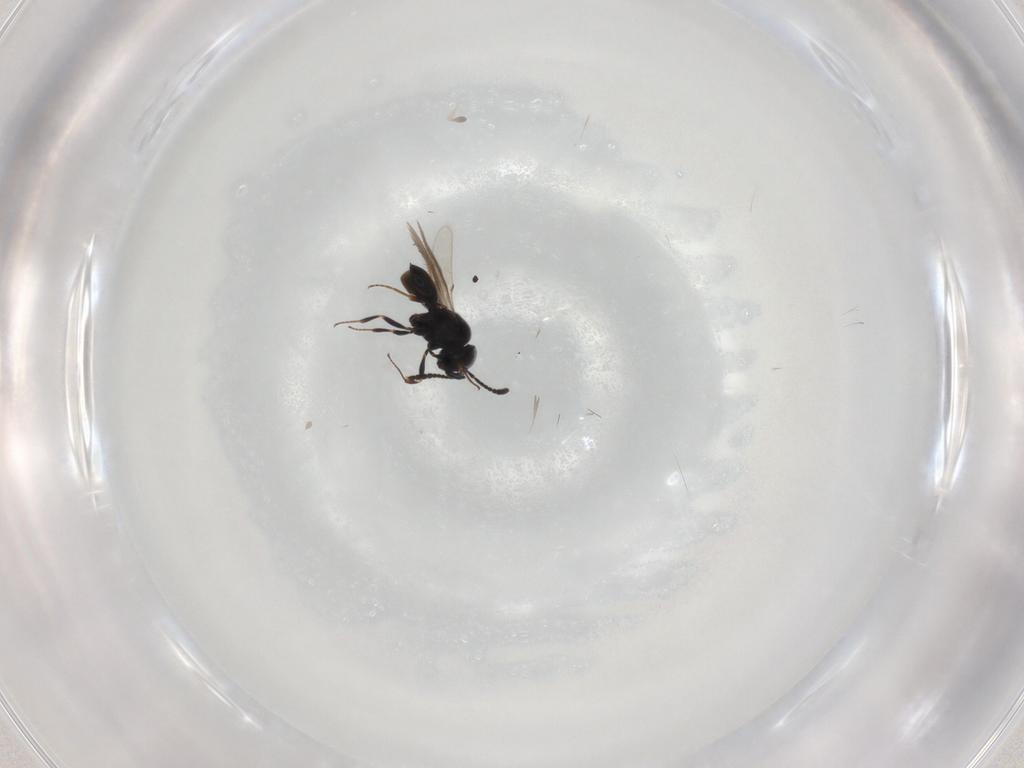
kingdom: Animalia
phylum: Arthropoda
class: Insecta
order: Hymenoptera
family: Scelionidae
